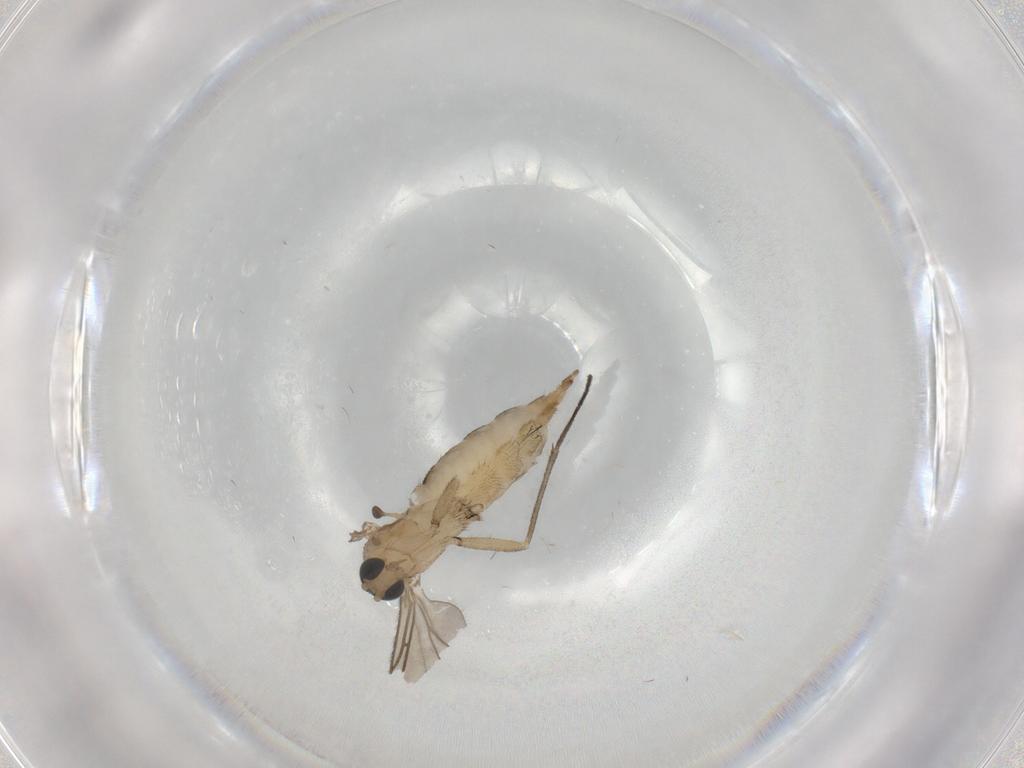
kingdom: Animalia
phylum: Arthropoda
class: Insecta
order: Diptera
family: Sciaridae
